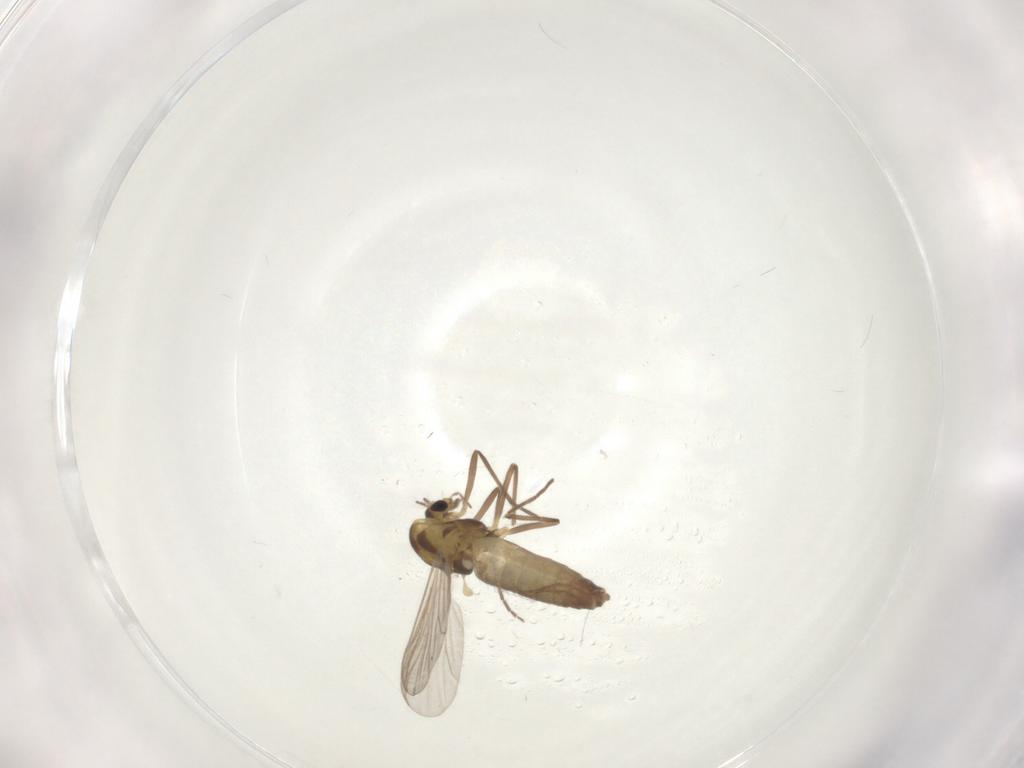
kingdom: Animalia
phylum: Arthropoda
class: Insecta
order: Diptera
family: Chironomidae
